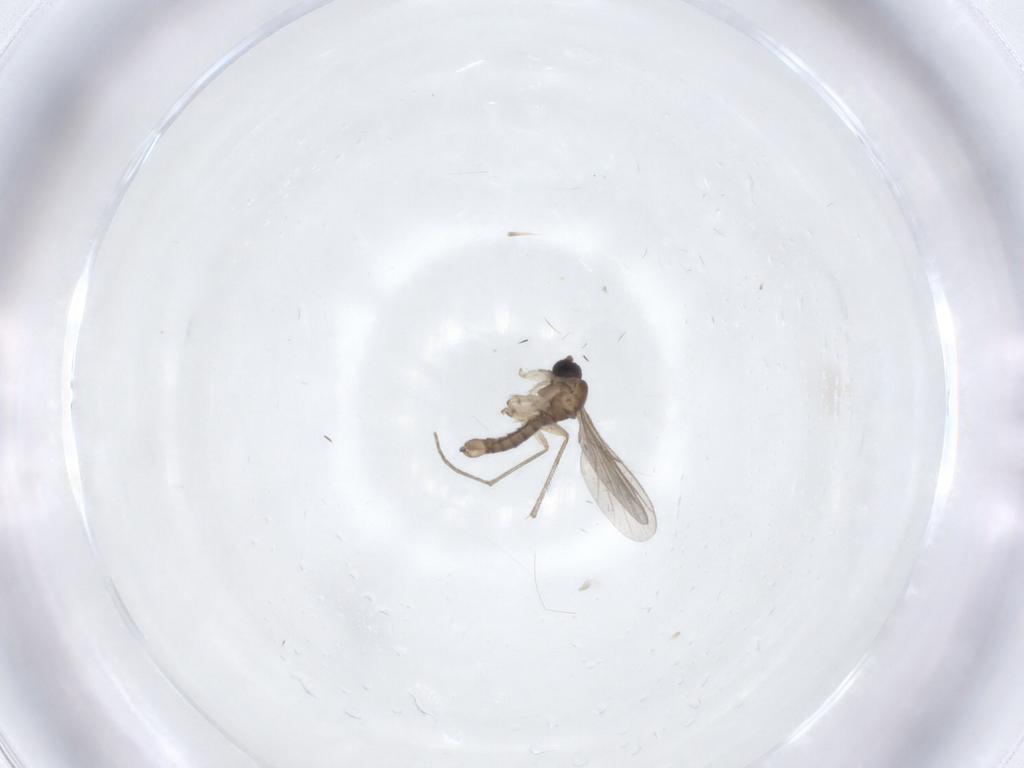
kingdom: Animalia
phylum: Arthropoda
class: Insecta
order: Diptera
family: Sciaridae
